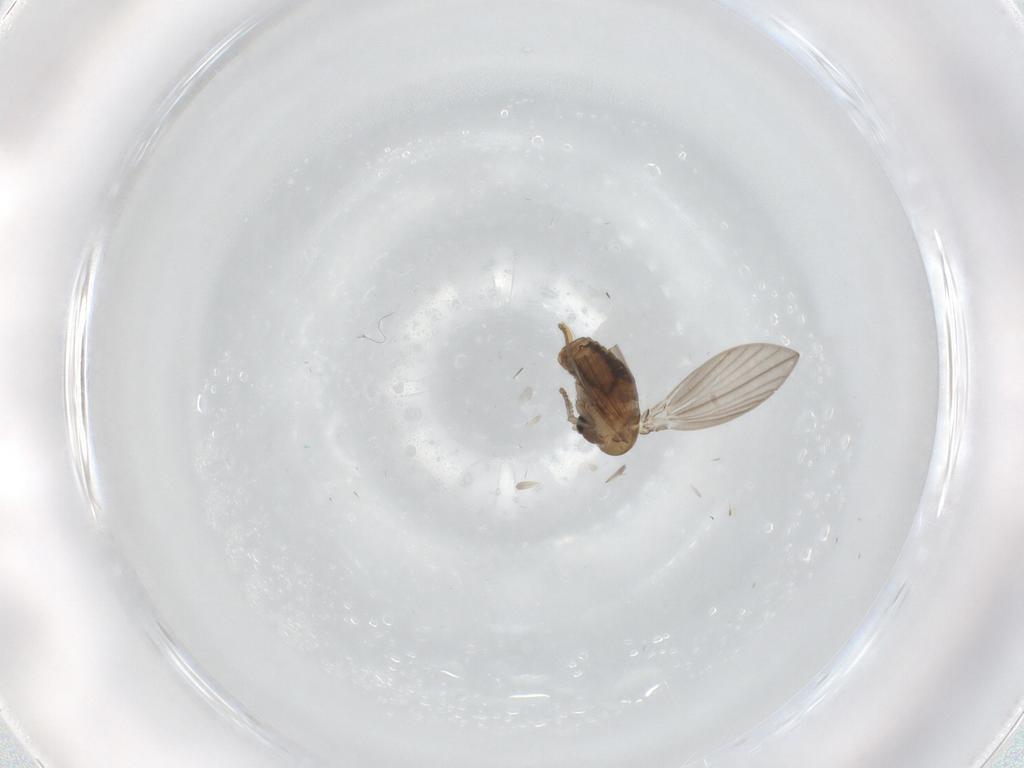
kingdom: Animalia
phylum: Arthropoda
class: Insecta
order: Diptera
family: Psychodidae
